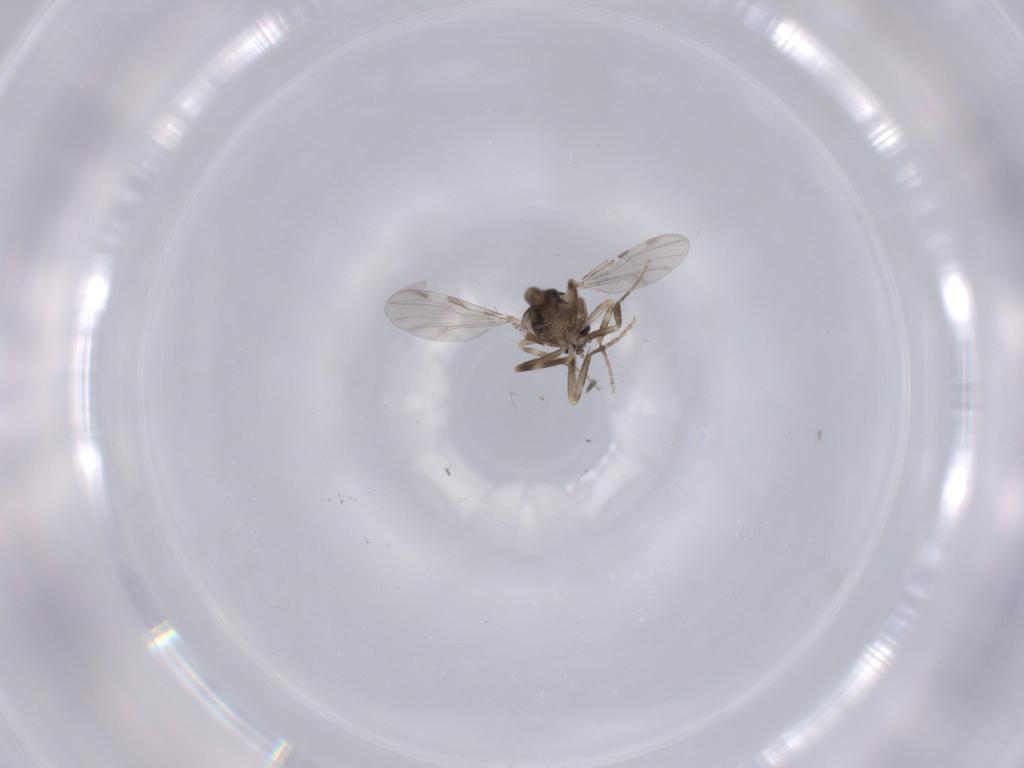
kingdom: Animalia
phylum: Arthropoda
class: Insecta
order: Diptera
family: Ceratopogonidae
